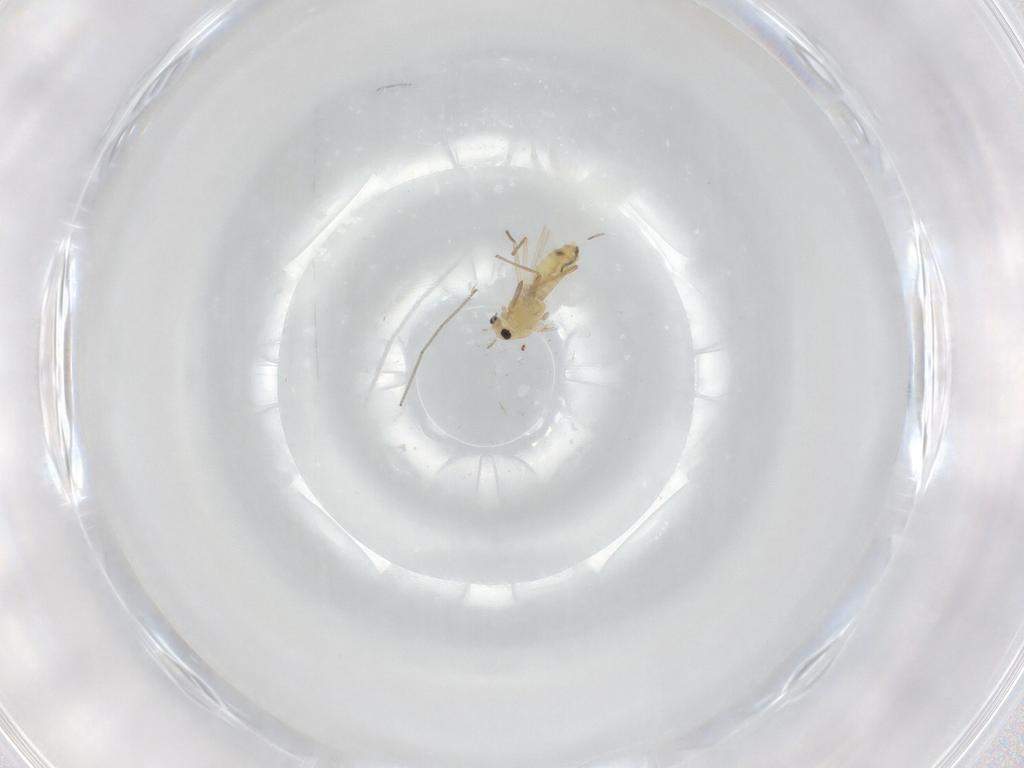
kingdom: Animalia
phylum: Arthropoda
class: Insecta
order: Diptera
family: Chironomidae
